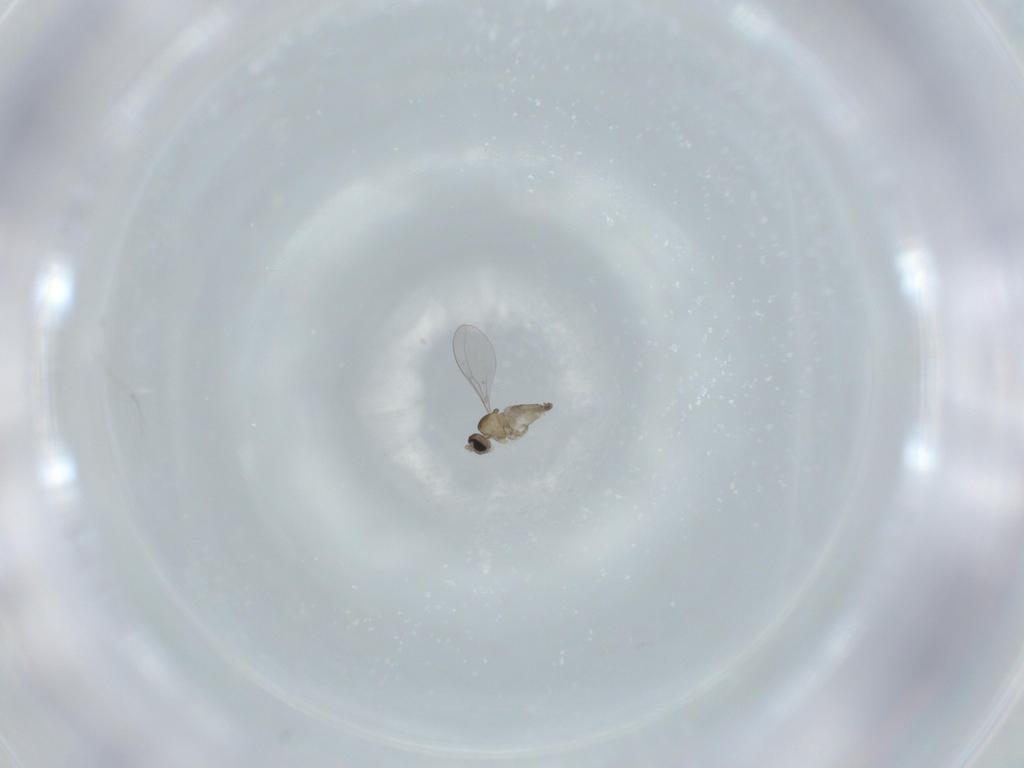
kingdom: Animalia
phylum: Arthropoda
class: Insecta
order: Diptera
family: Cecidomyiidae
